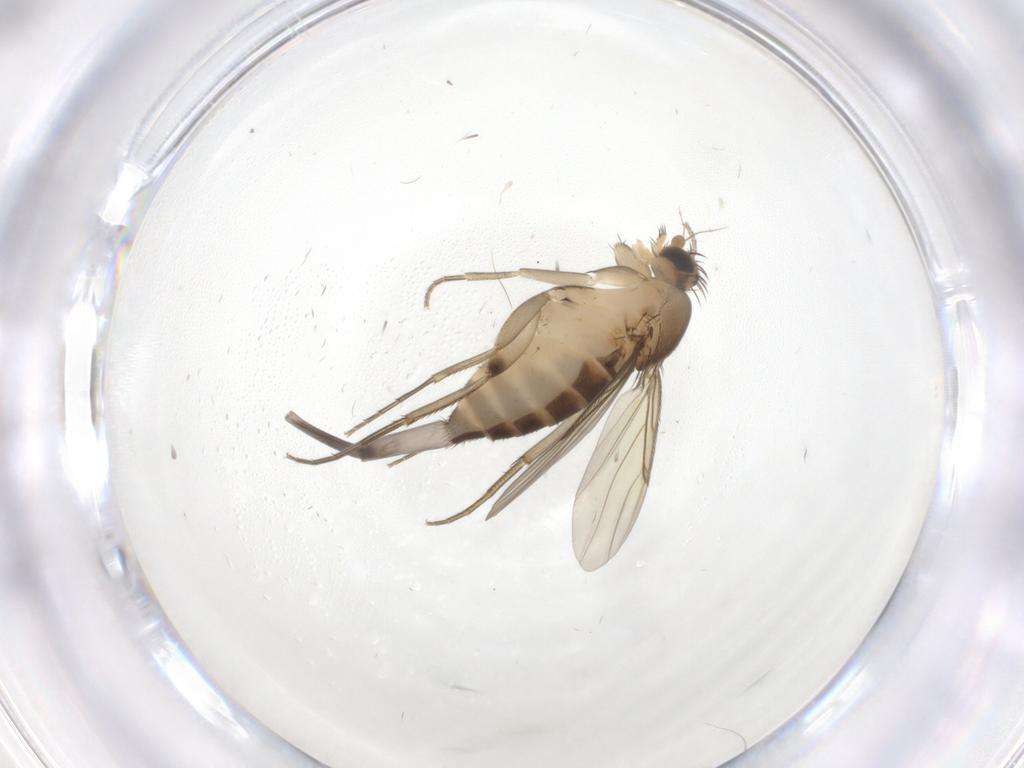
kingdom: Animalia
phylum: Arthropoda
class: Insecta
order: Diptera
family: Phoridae
